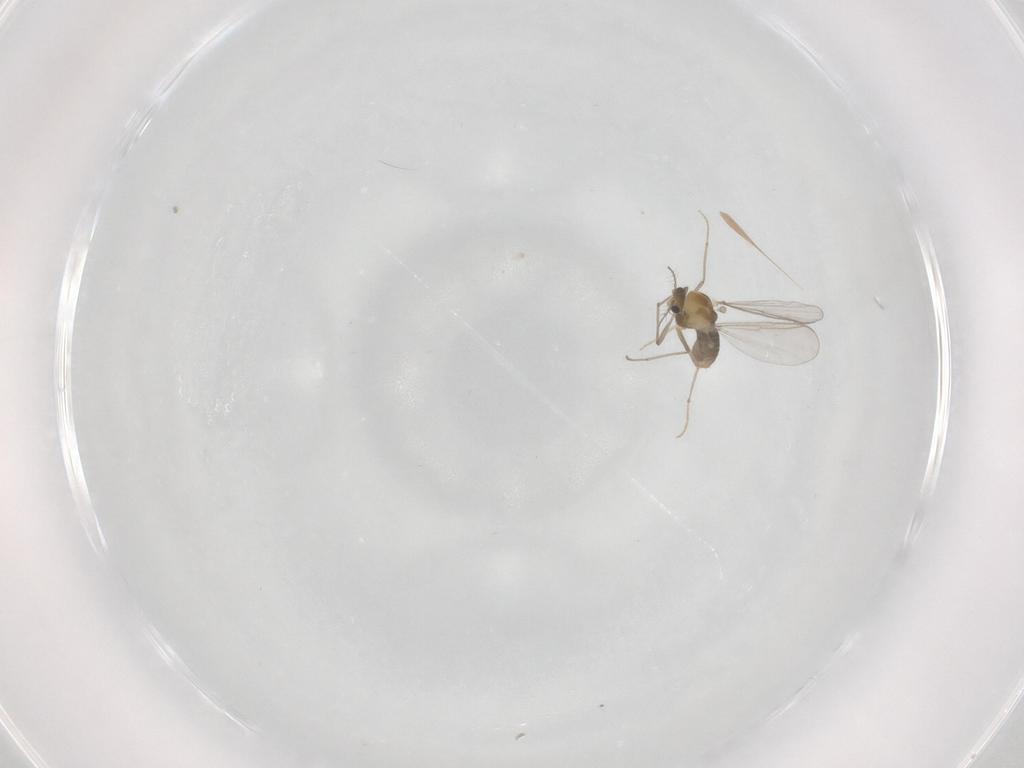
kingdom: Animalia
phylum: Arthropoda
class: Insecta
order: Diptera
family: Chironomidae
